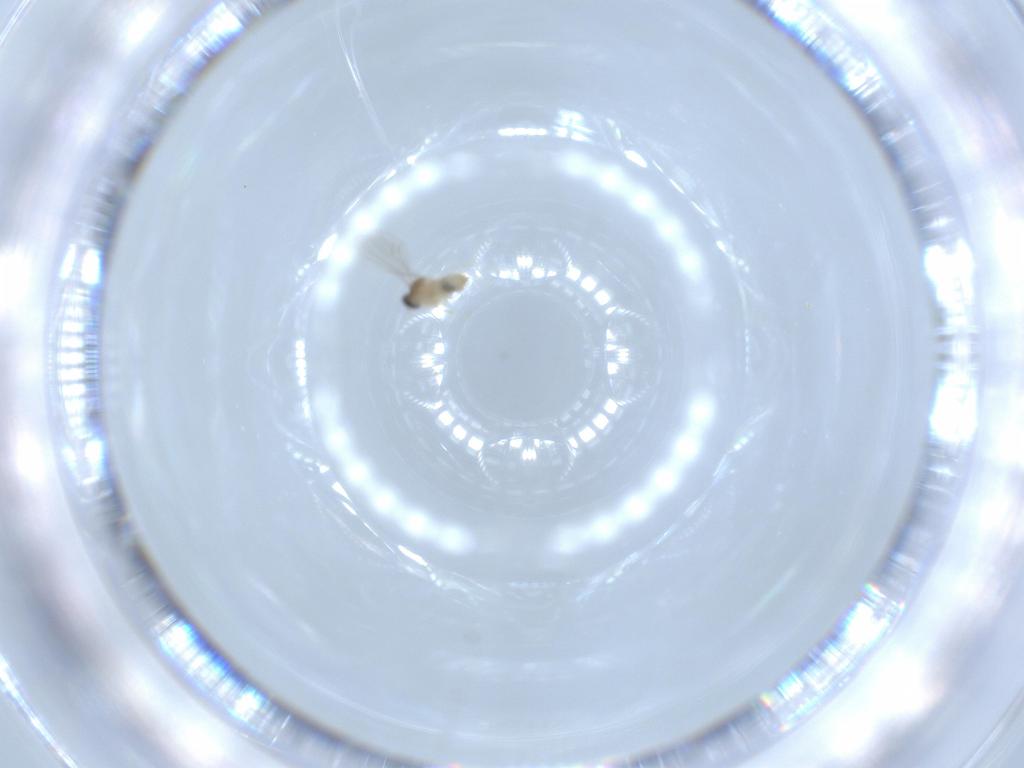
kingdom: Animalia
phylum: Arthropoda
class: Insecta
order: Diptera
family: Cecidomyiidae
